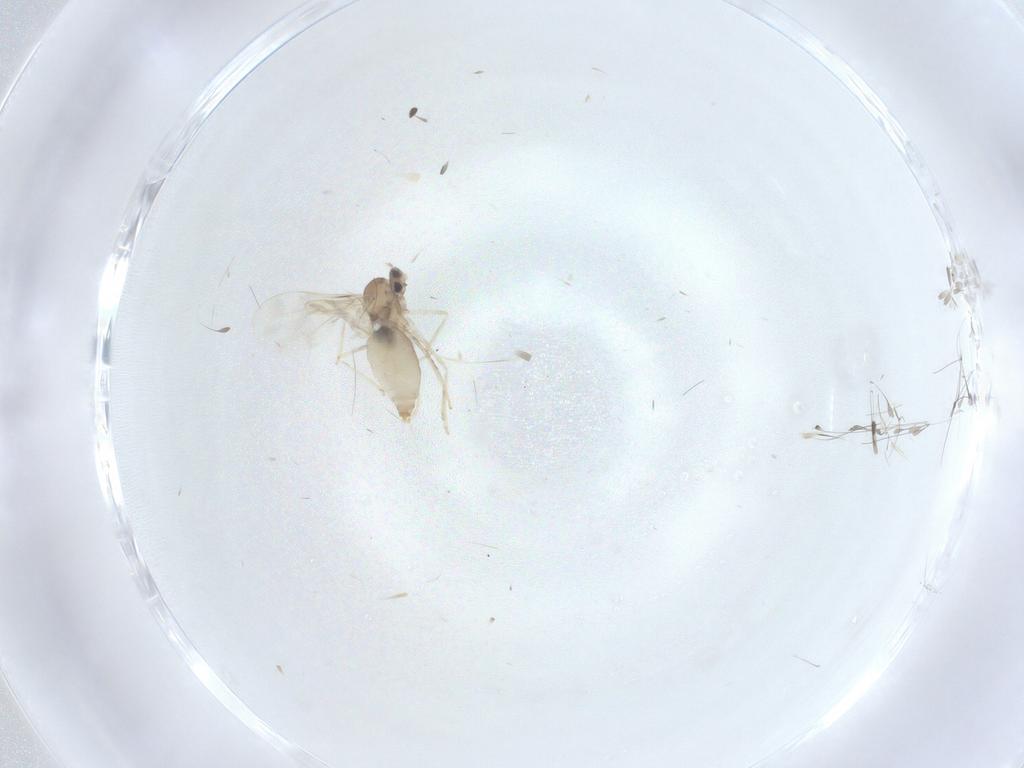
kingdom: Animalia
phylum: Arthropoda
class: Insecta
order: Diptera
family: Cecidomyiidae
